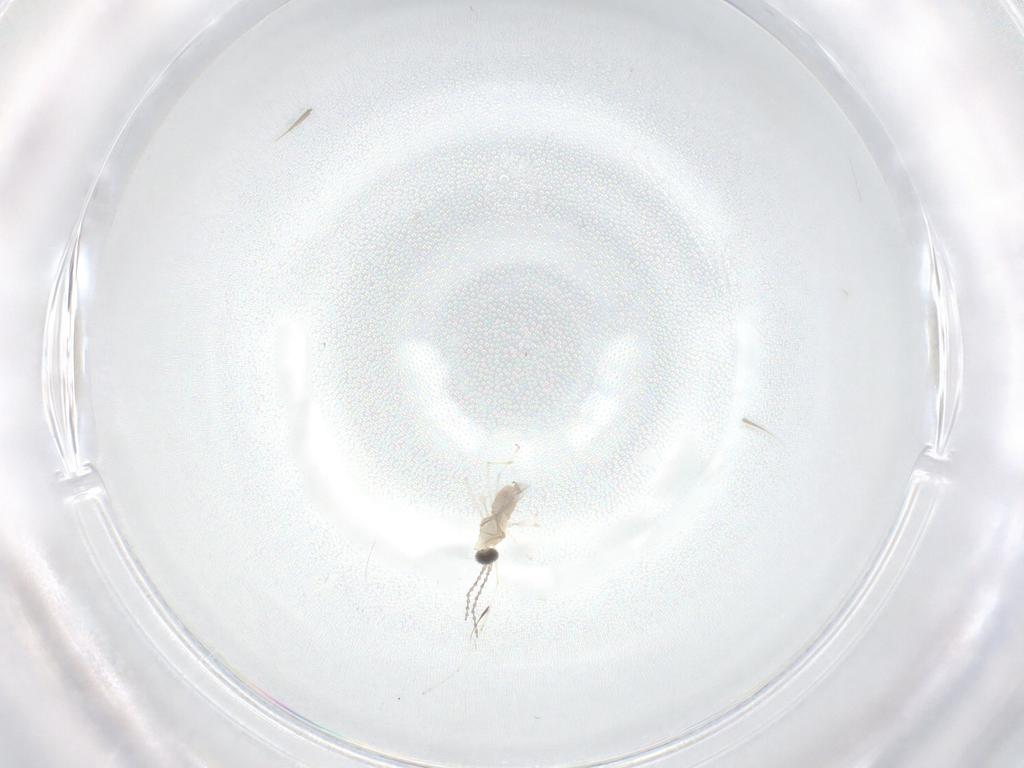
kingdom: Animalia
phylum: Arthropoda
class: Insecta
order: Diptera
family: Cecidomyiidae
